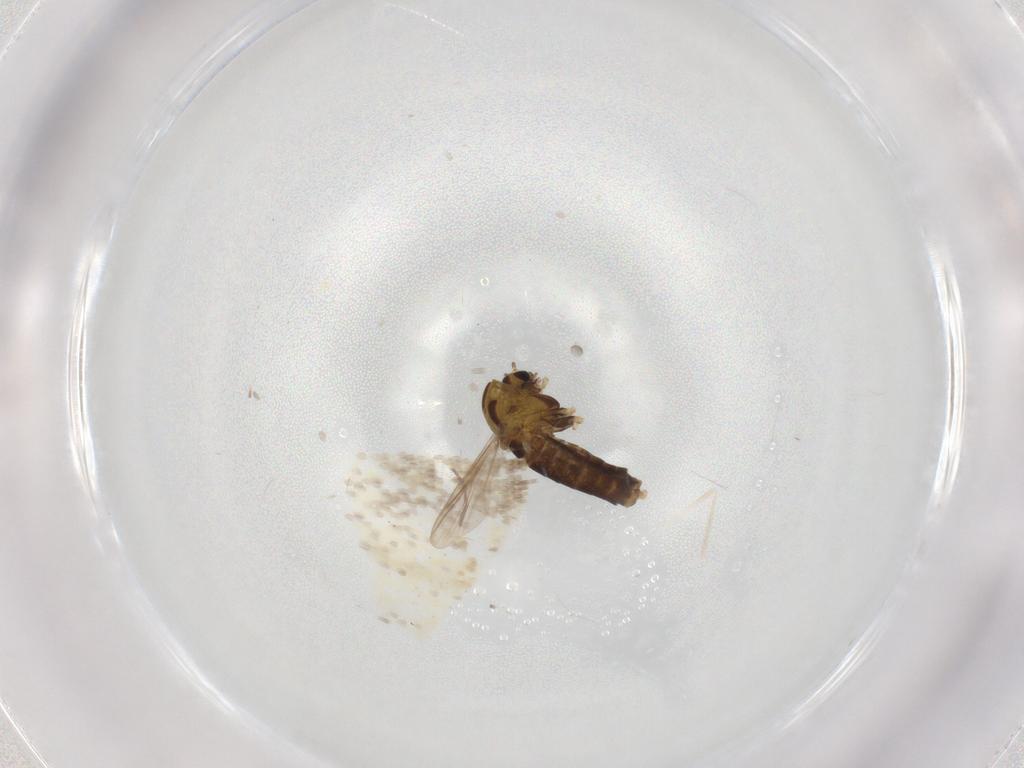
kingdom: Animalia
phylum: Arthropoda
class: Insecta
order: Diptera
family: Chironomidae
